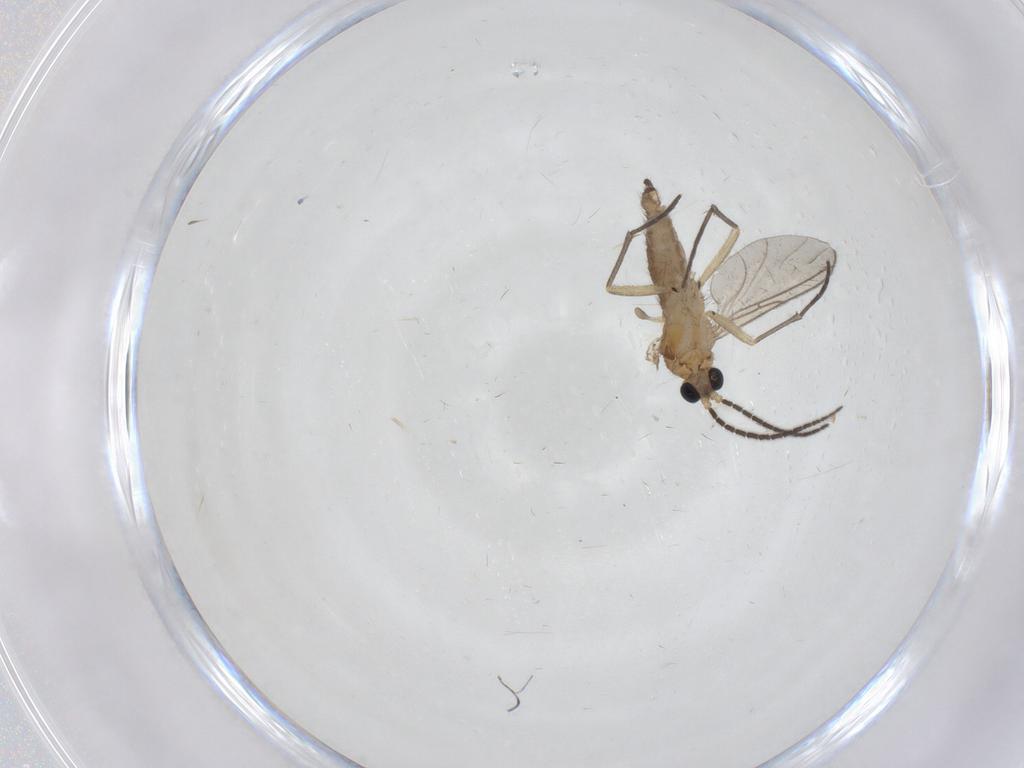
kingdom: Animalia
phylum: Arthropoda
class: Insecta
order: Diptera
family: Sciaridae
